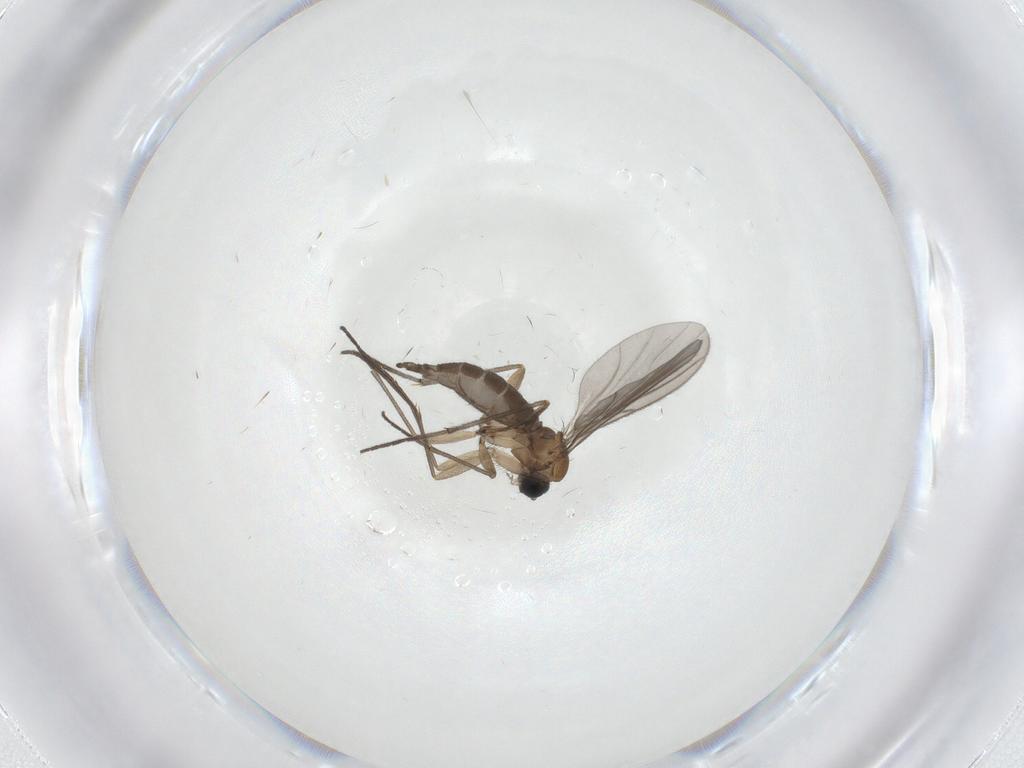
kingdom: Animalia
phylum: Arthropoda
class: Insecta
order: Diptera
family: Sciaridae
